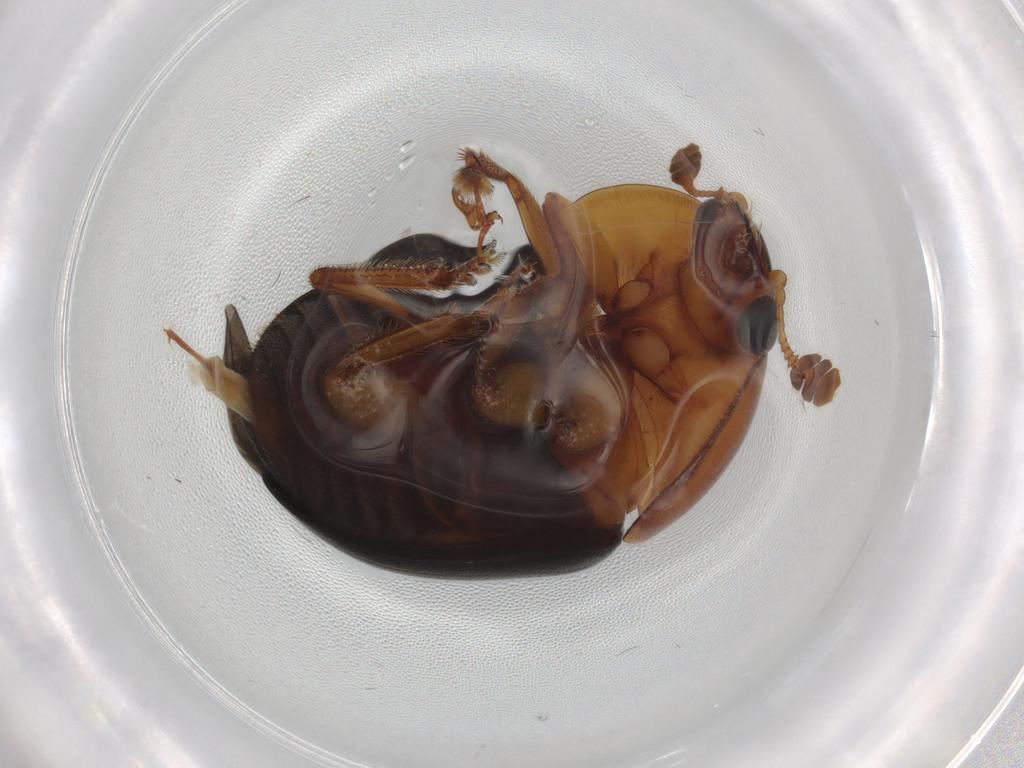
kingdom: Animalia
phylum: Arthropoda
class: Insecta
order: Coleoptera
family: Nitidulidae
